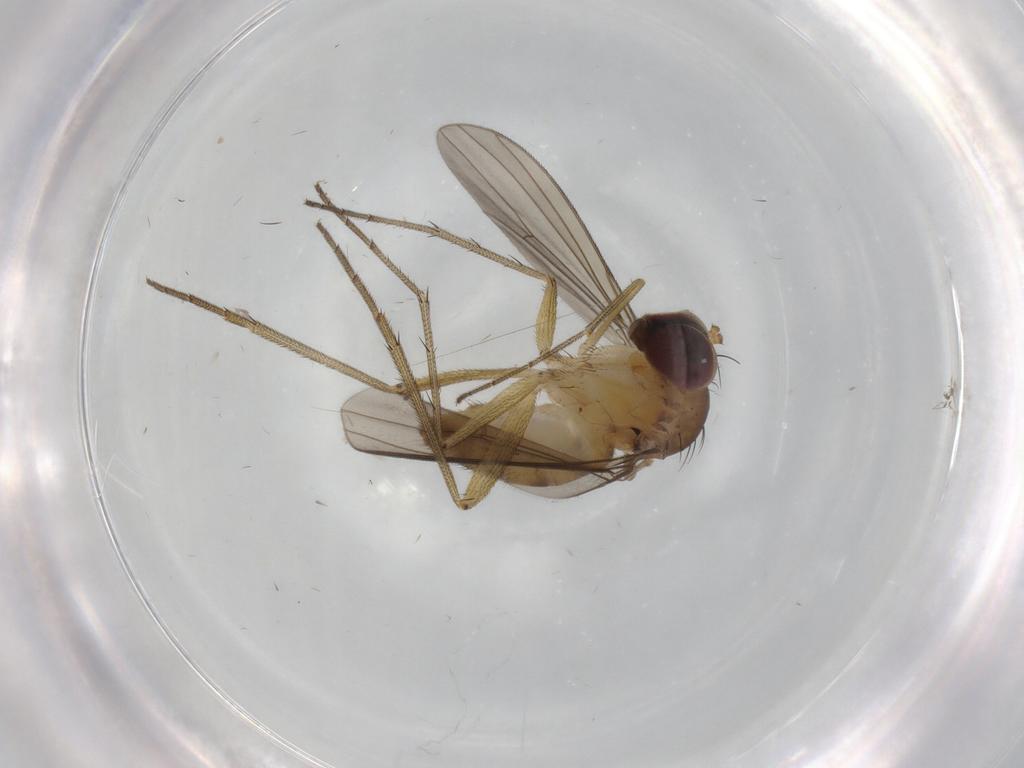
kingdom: Animalia
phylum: Arthropoda
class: Insecta
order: Diptera
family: Dolichopodidae
